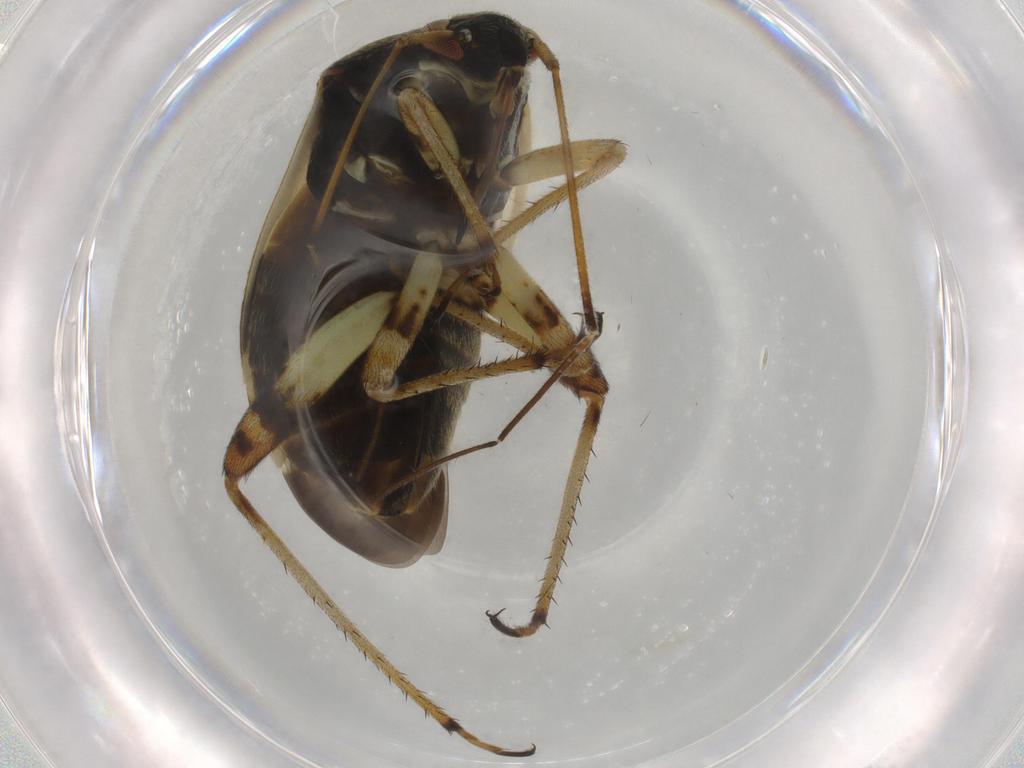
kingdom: Animalia
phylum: Arthropoda
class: Insecta
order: Hemiptera
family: Miridae
